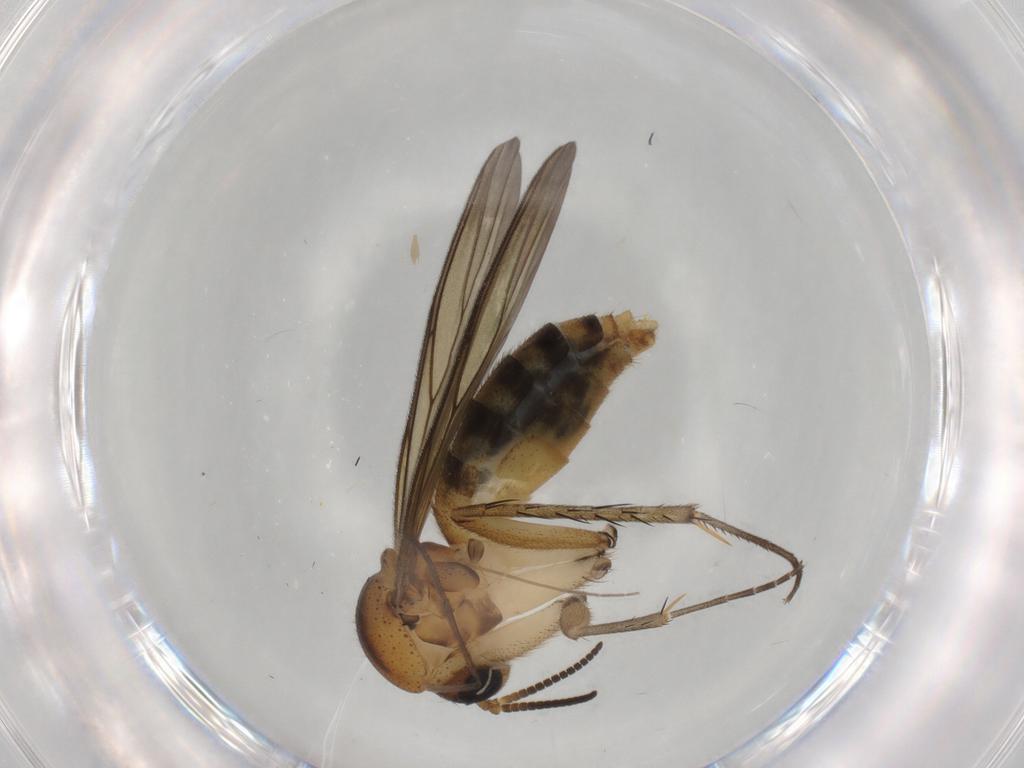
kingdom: Animalia
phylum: Arthropoda
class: Insecta
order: Diptera
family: Mycetophilidae
